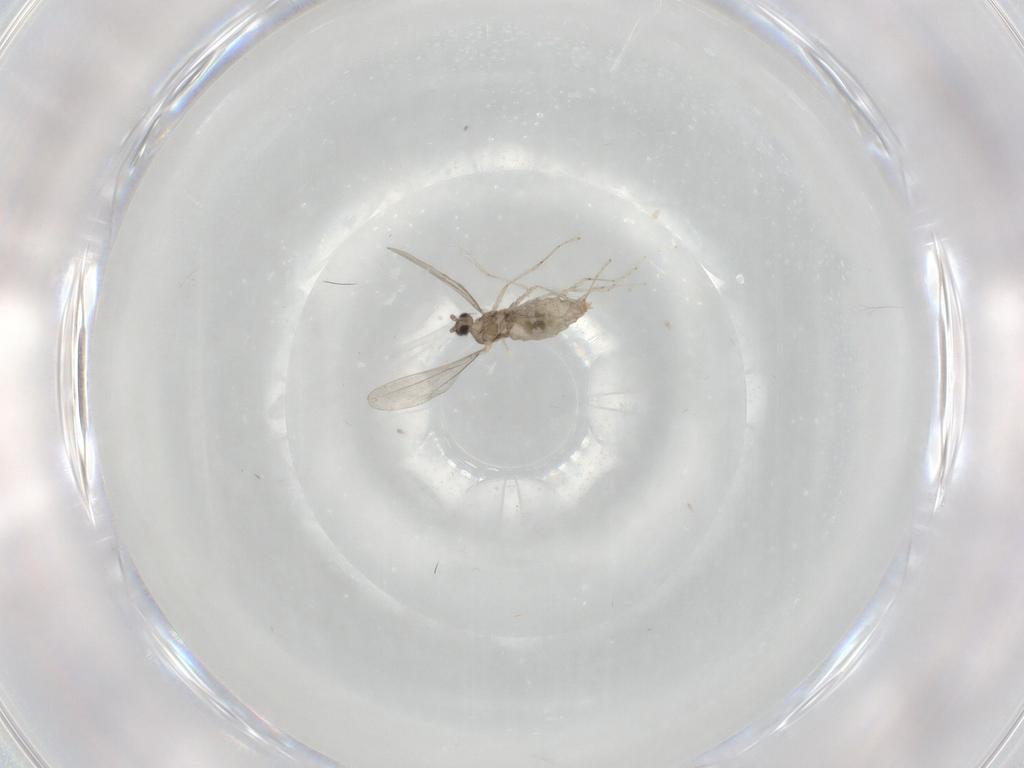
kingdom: Animalia
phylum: Arthropoda
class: Insecta
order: Diptera
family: Cecidomyiidae
